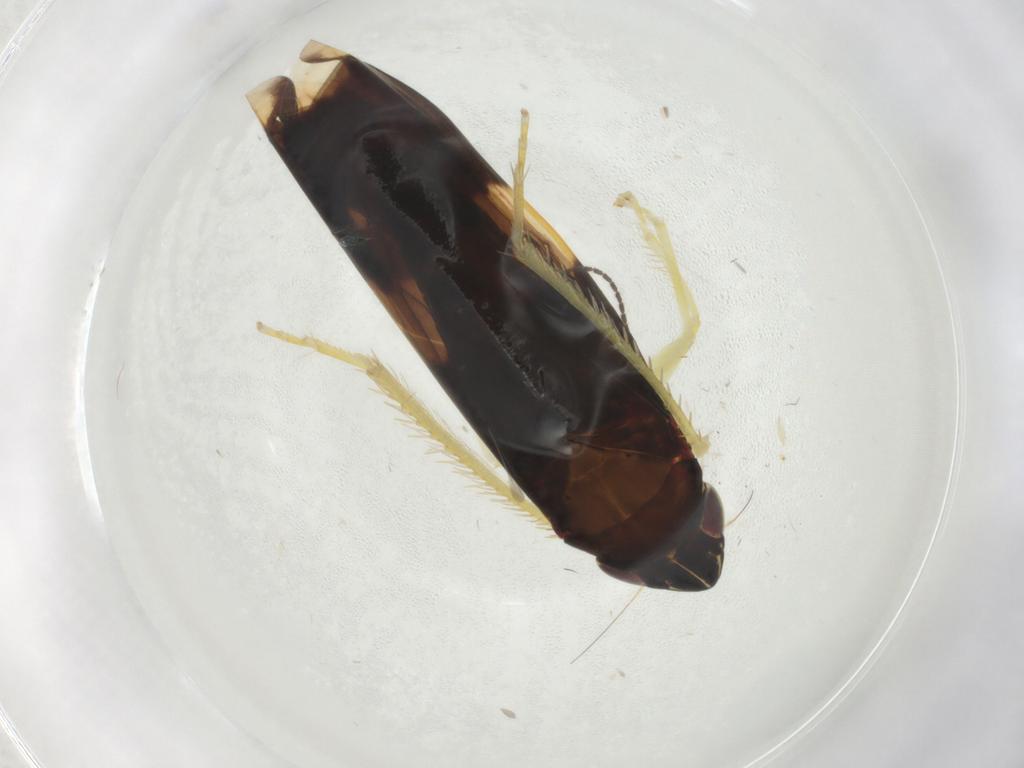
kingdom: Animalia
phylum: Arthropoda
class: Insecta
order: Hemiptera
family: Cicadellidae
